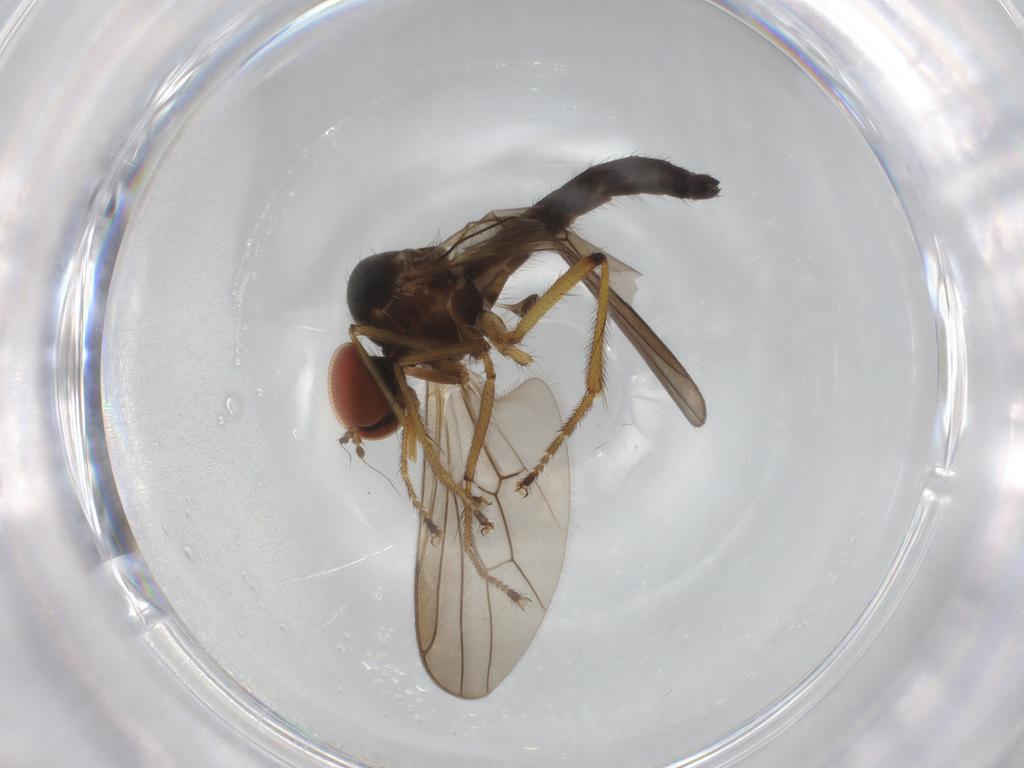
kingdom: Animalia
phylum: Arthropoda
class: Insecta
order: Diptera
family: Hybotidae
